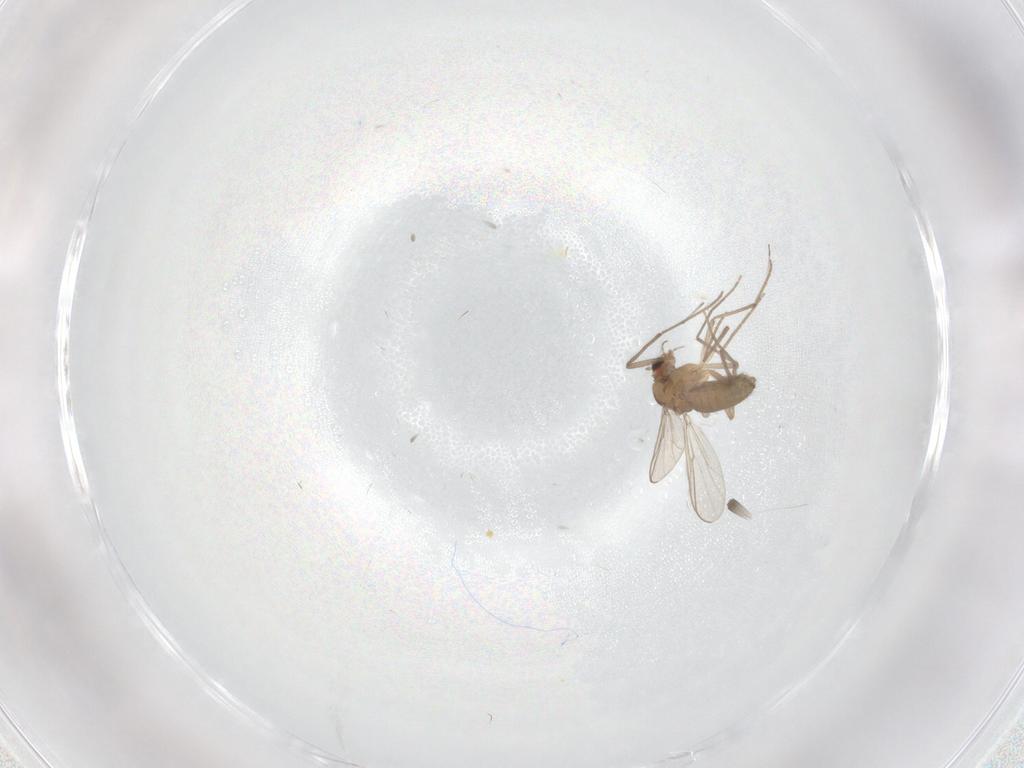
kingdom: Animalia
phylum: Arthropoda
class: Insecta
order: Diptera
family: Chironomidae
